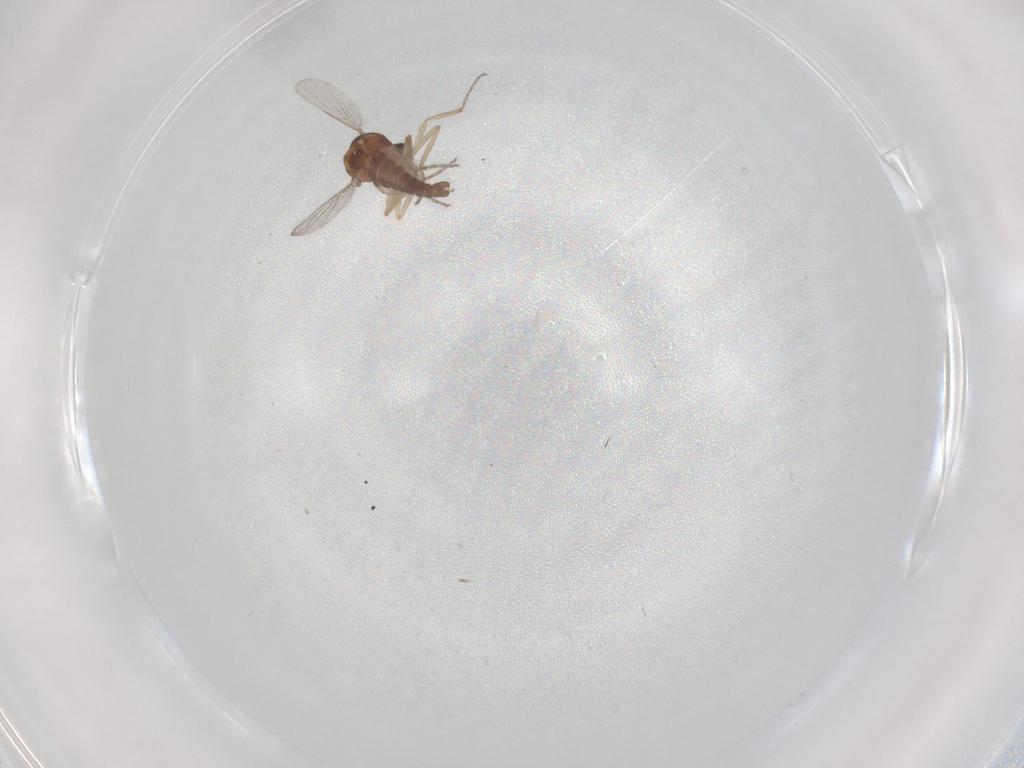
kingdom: Animalia
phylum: Arthropoda
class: Insecta
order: Diptera
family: Ceratopogonidae
